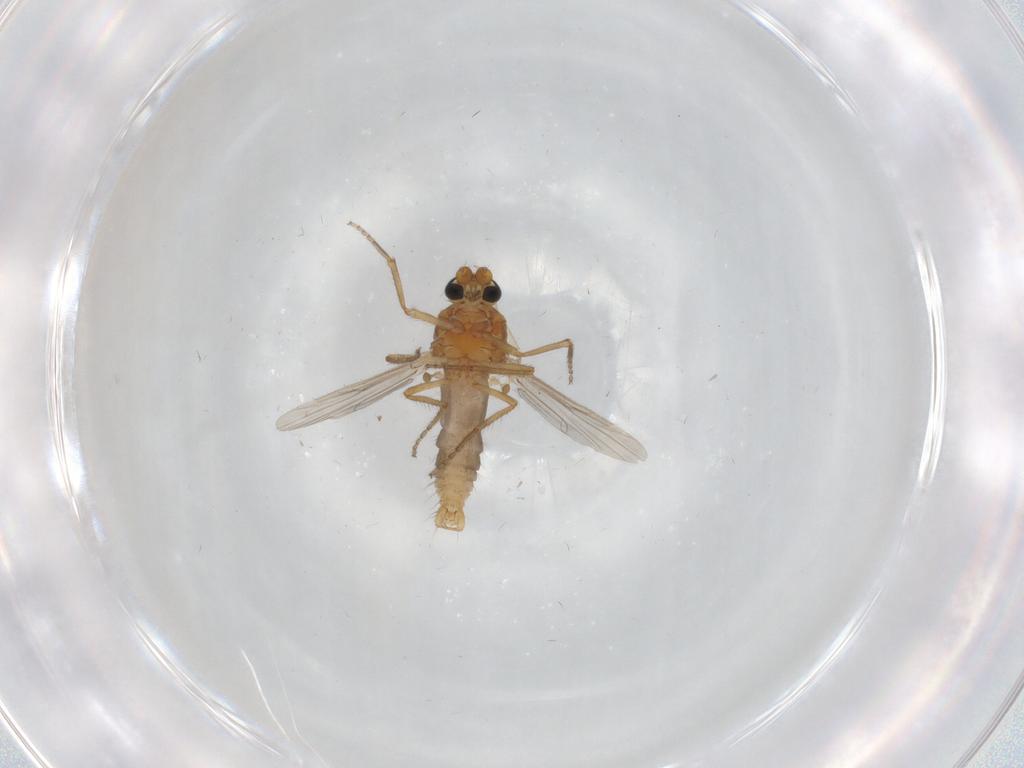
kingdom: Animalia
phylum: Arthropoda
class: Insecta
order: Diptera
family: Ceratopogonidae
